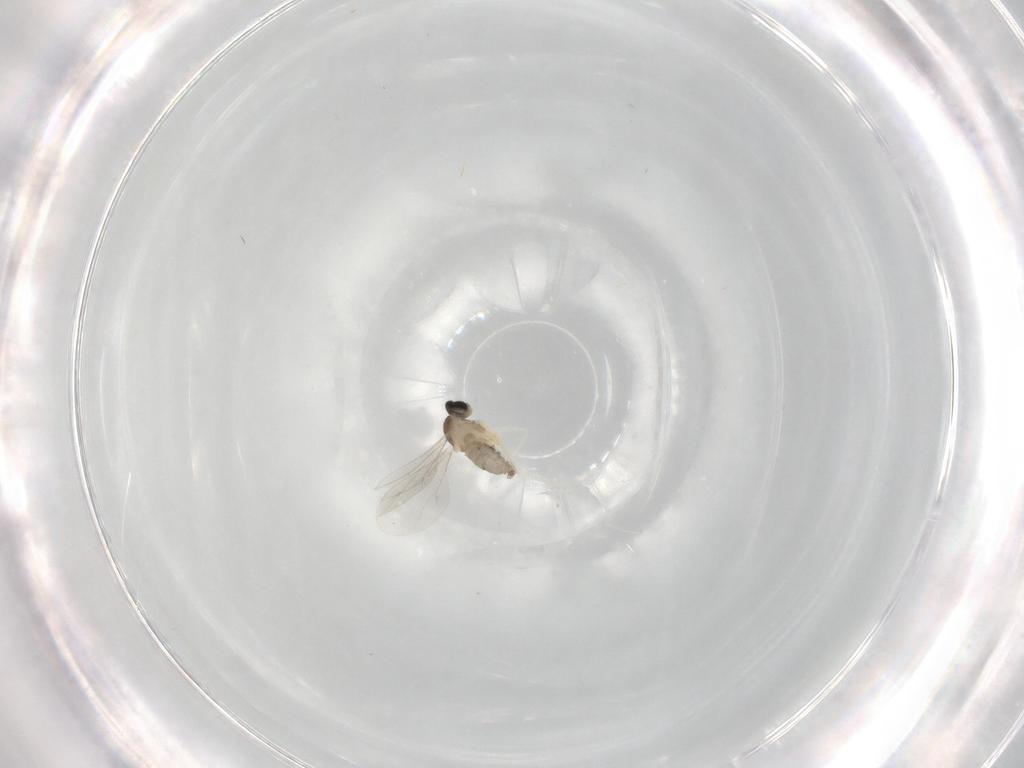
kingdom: Animalia
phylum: Arthropoda
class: Insecta
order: Diptera
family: Cecidomyiidae
